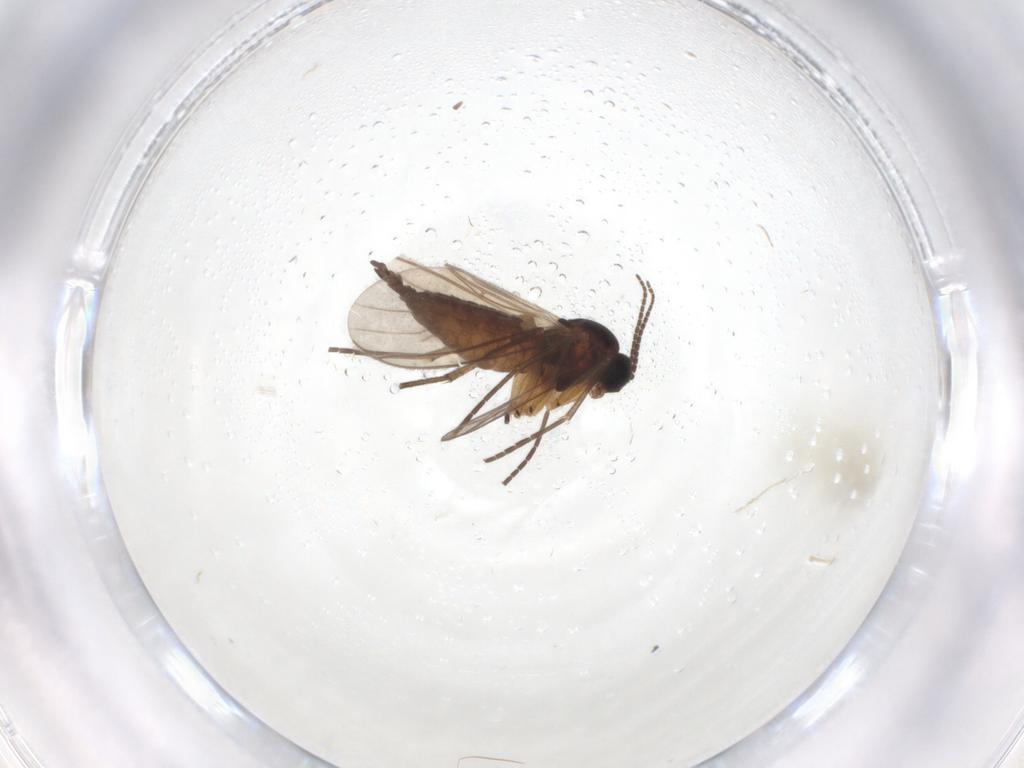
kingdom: Animalia
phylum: Arthropoda
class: Insecta
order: Diptera
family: Sciaridae
